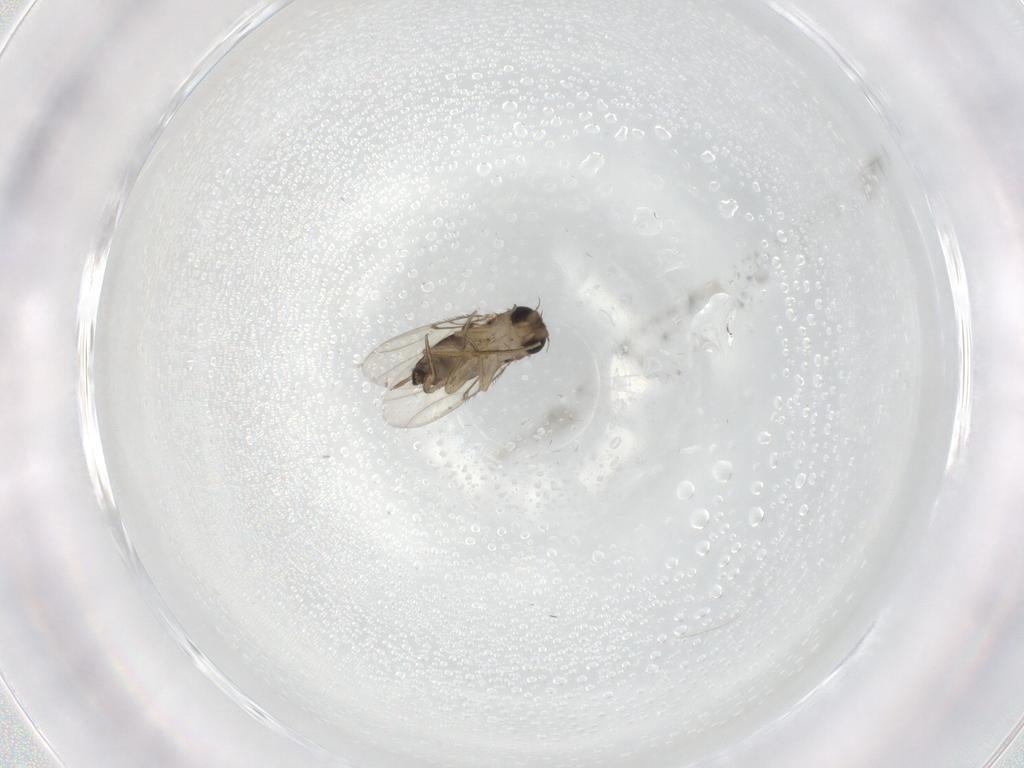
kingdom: Animalia
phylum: Arthropoda
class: Insecta
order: Diptera
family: Phoridae
